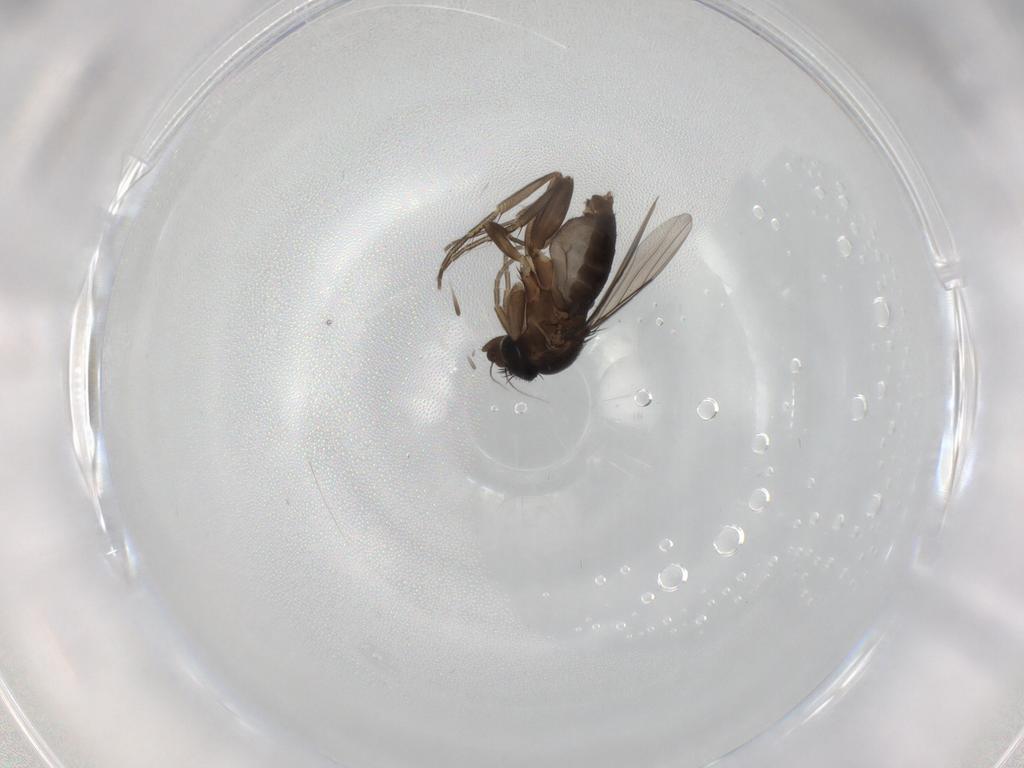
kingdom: Animalia
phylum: Arthropoda
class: Insecta
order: Diptera
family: Phoridae
